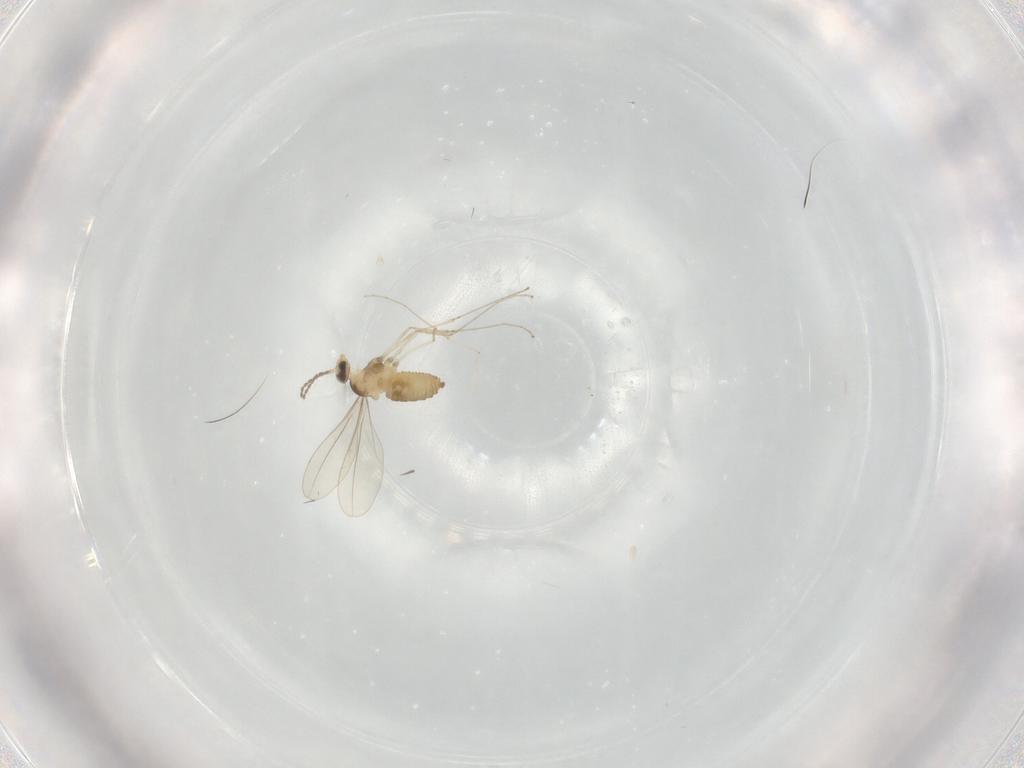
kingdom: Animalia
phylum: Arthropoda
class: Insecta
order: Diptera
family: Cecidomyiidae
